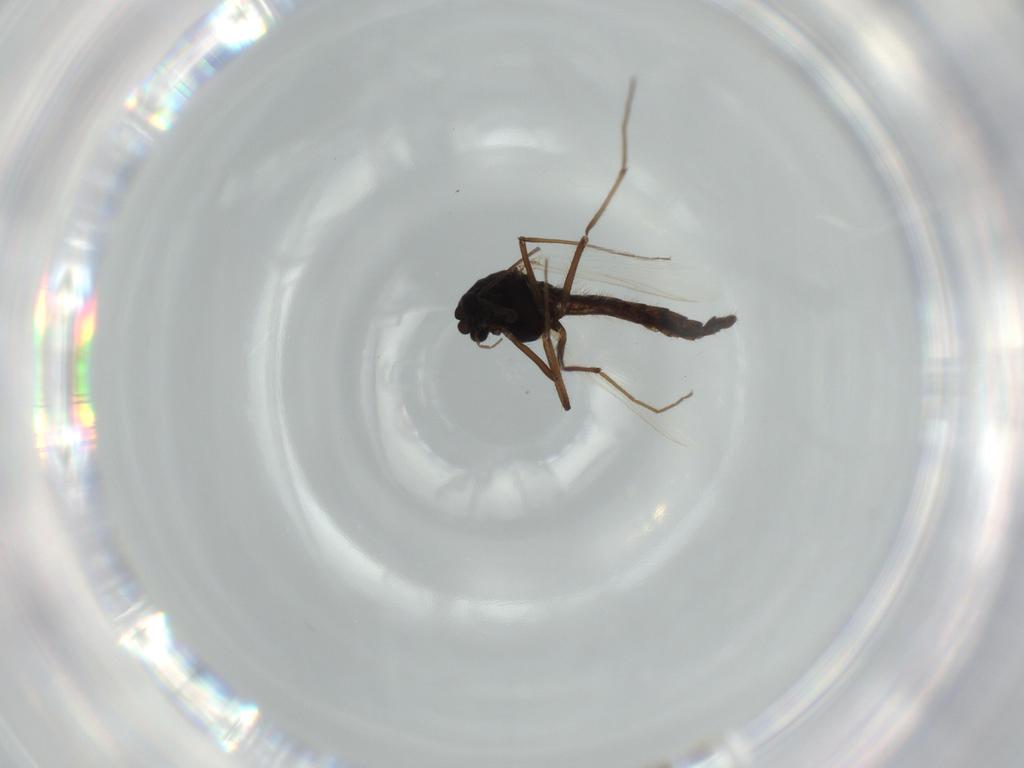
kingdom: Animalia
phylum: Arthropoda
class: Insecta
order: Diptera
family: Hybotidae
